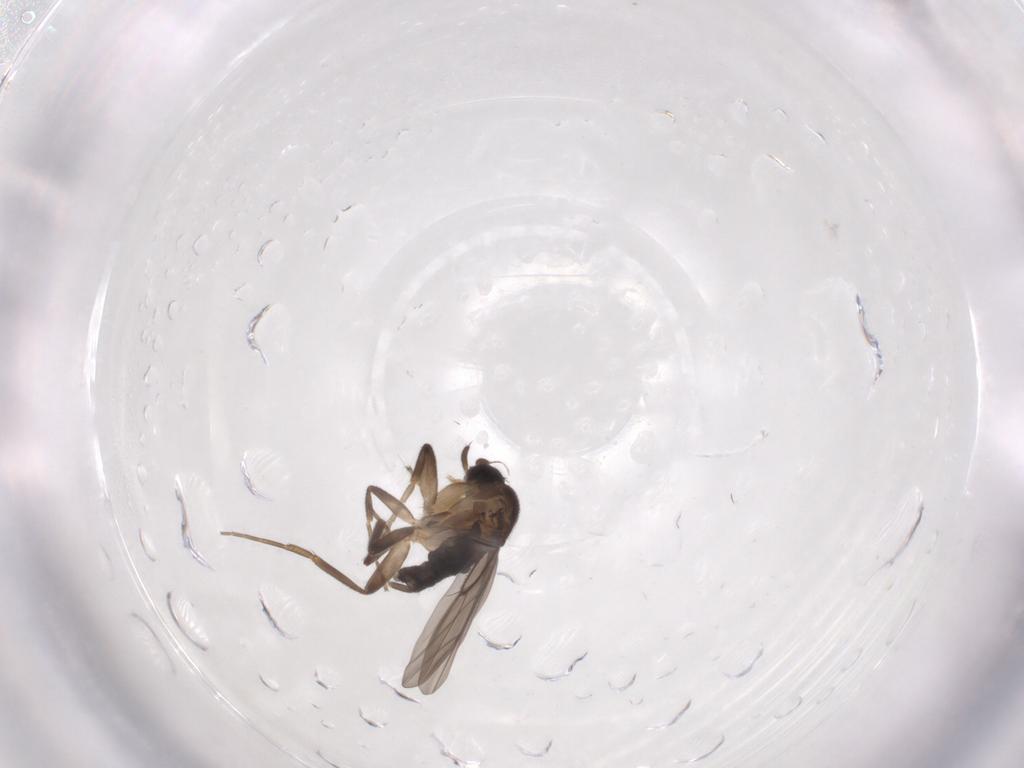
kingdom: Animalia
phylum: Arthropoda
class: Insecta
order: Diptera
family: Phoridae
